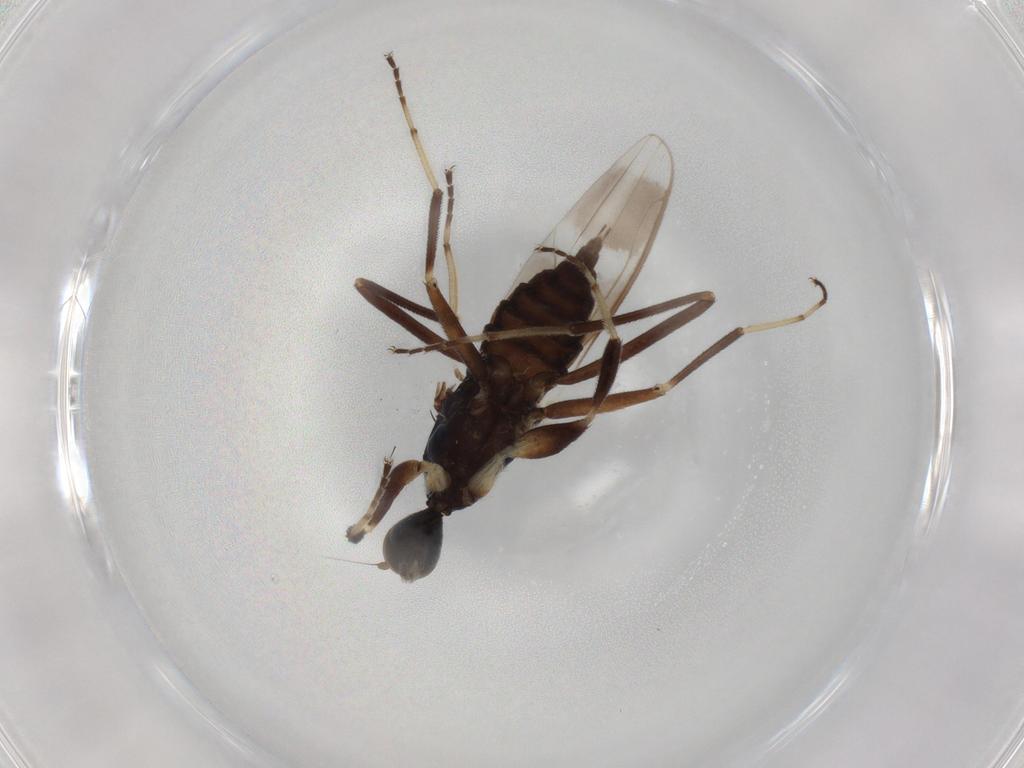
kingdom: Animalia
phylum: Arthropoda
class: Insecta
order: Diptera
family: Hybotidae
